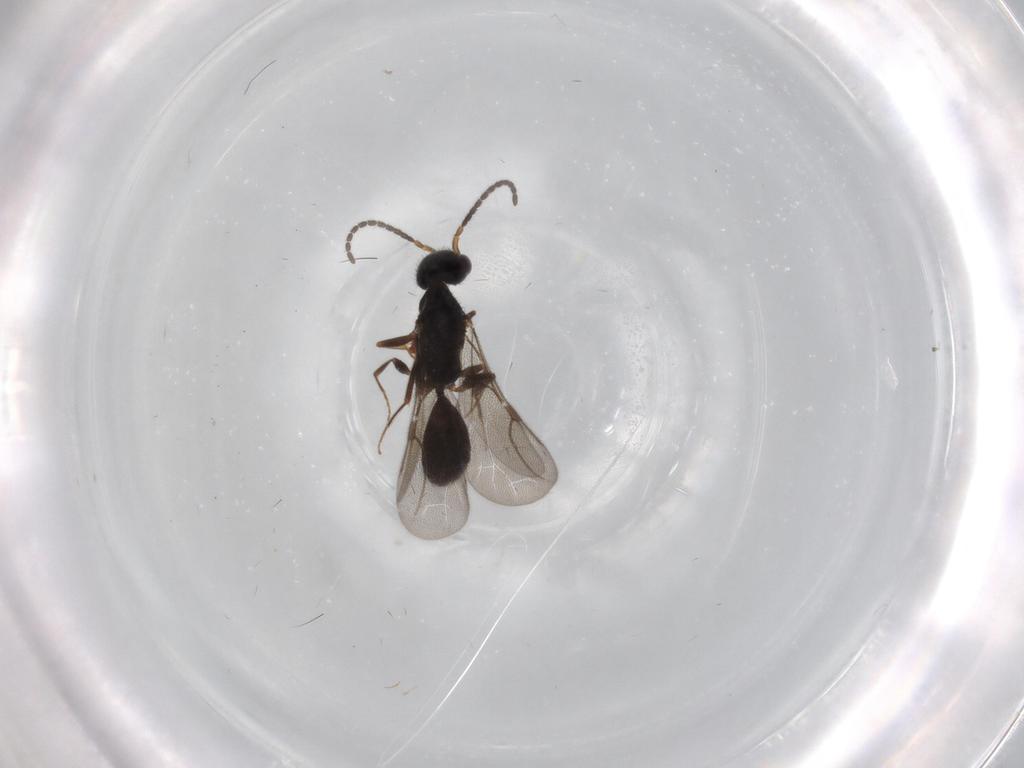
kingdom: Animalia
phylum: Arthropoda
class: Insecta
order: Hymenoptera
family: Bethylidae
